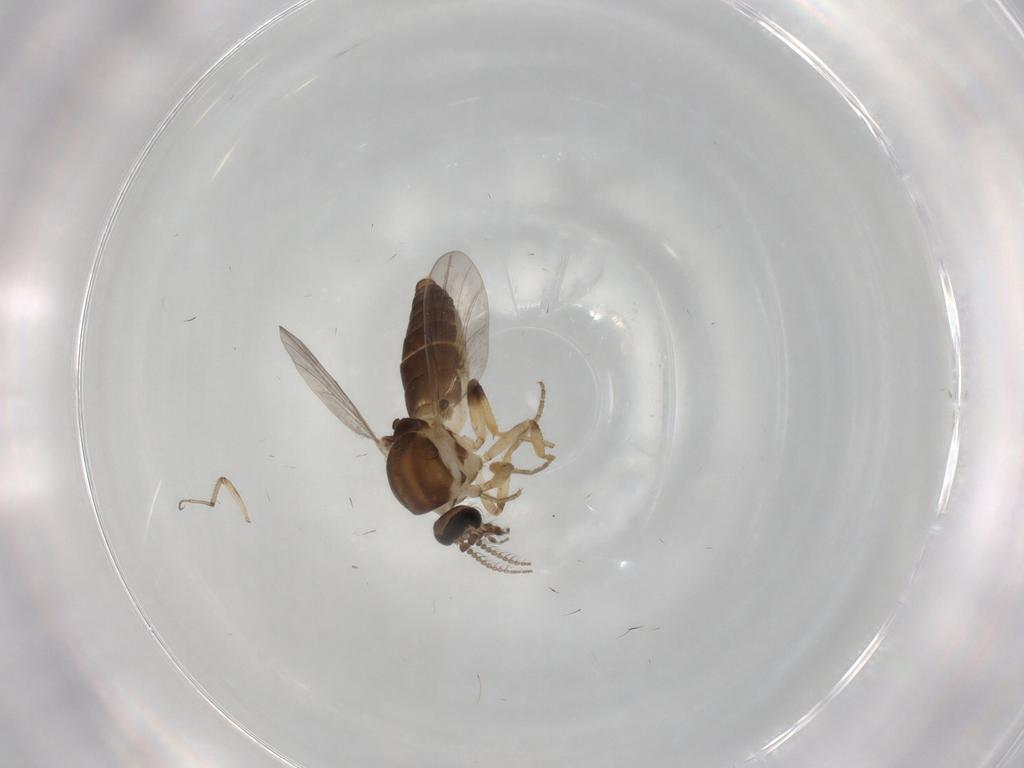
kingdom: Animalia
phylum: Arthropoda
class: Insecta
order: Diptera
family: Ceratopogonidae
